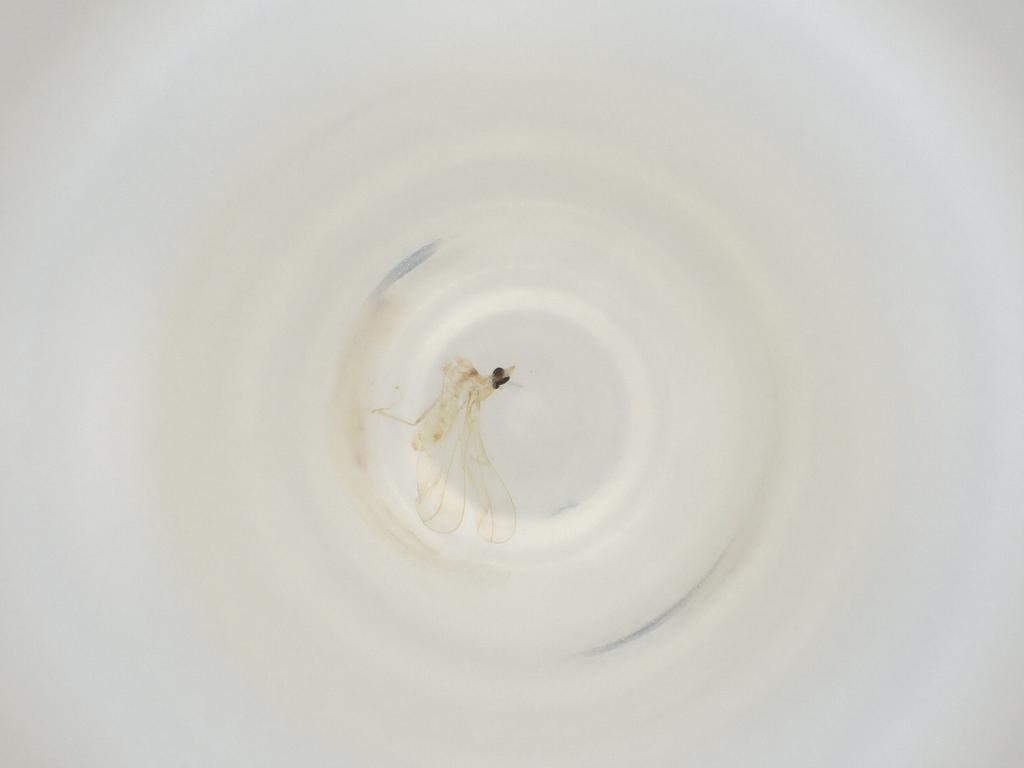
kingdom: Animalia
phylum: Arthropoda
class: Insecta
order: Diptera
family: Cecidomyiidae
